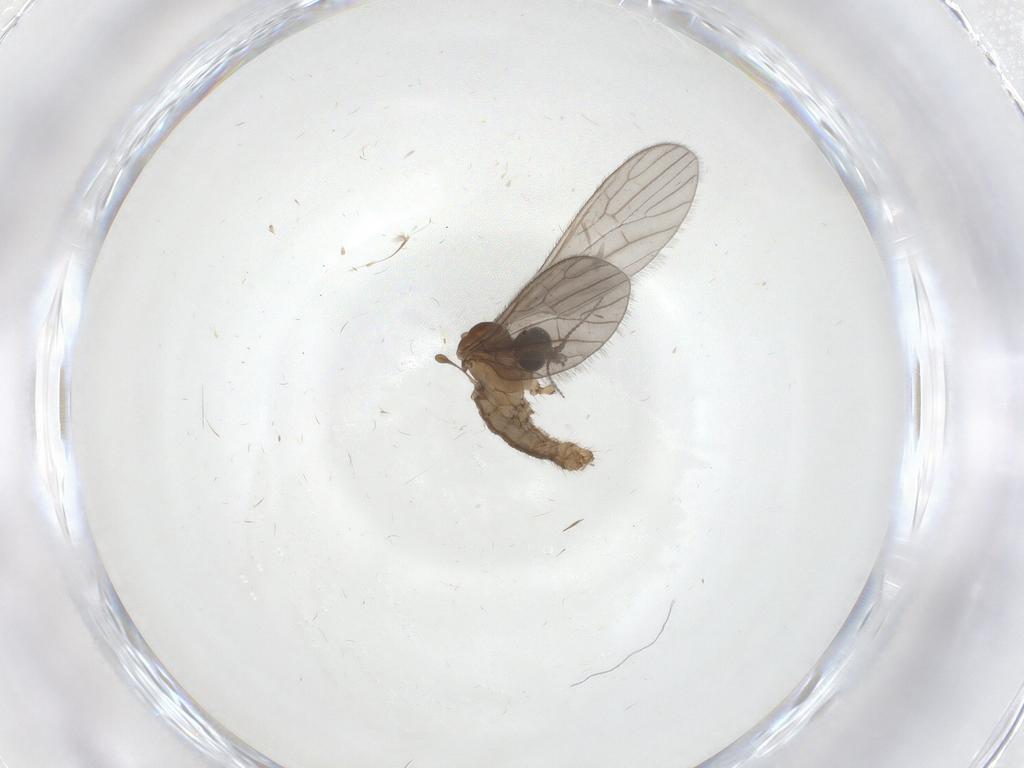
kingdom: Animalia
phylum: Arthropoda
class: Insecta
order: Diptera
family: Limoniidae
